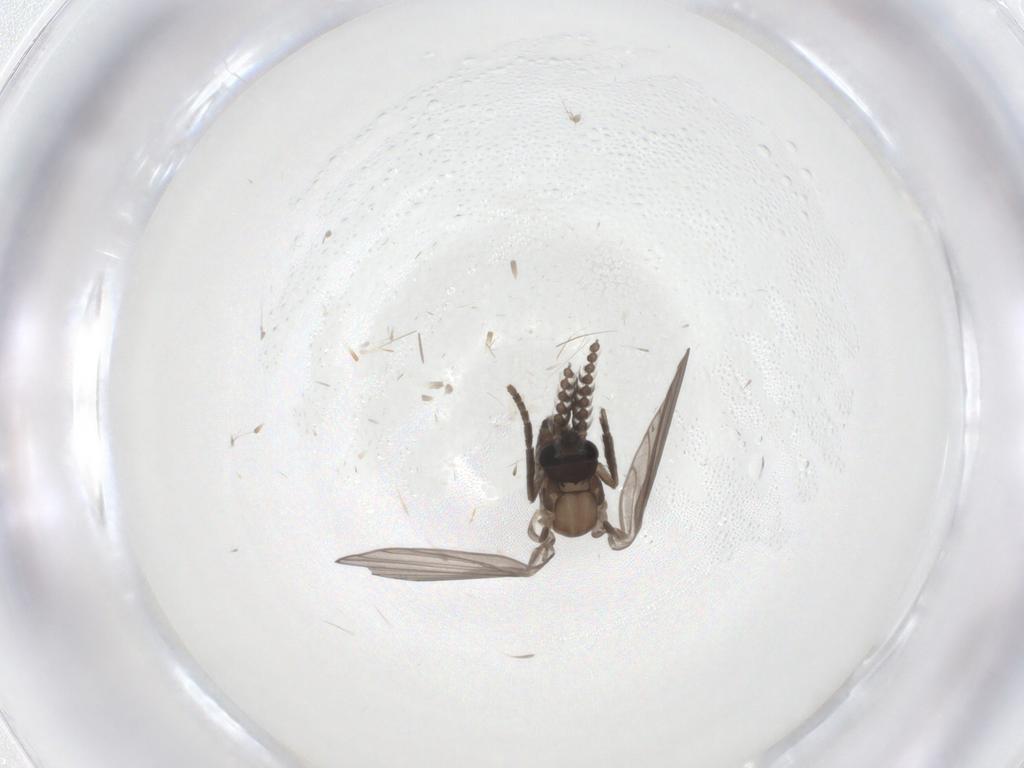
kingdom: Animalia
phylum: Arthropoda
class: Insecta
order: Diptera
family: Psychodidae
